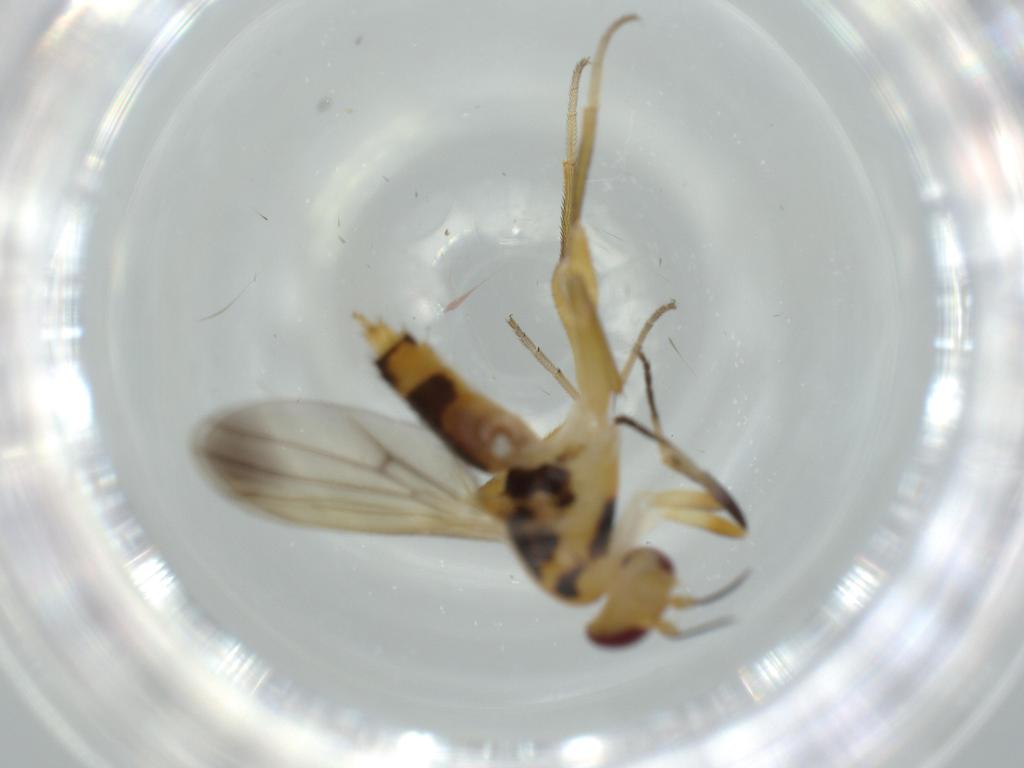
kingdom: Animalia
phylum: Arthropoda
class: Insecta
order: Diptera
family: Clusiidae
